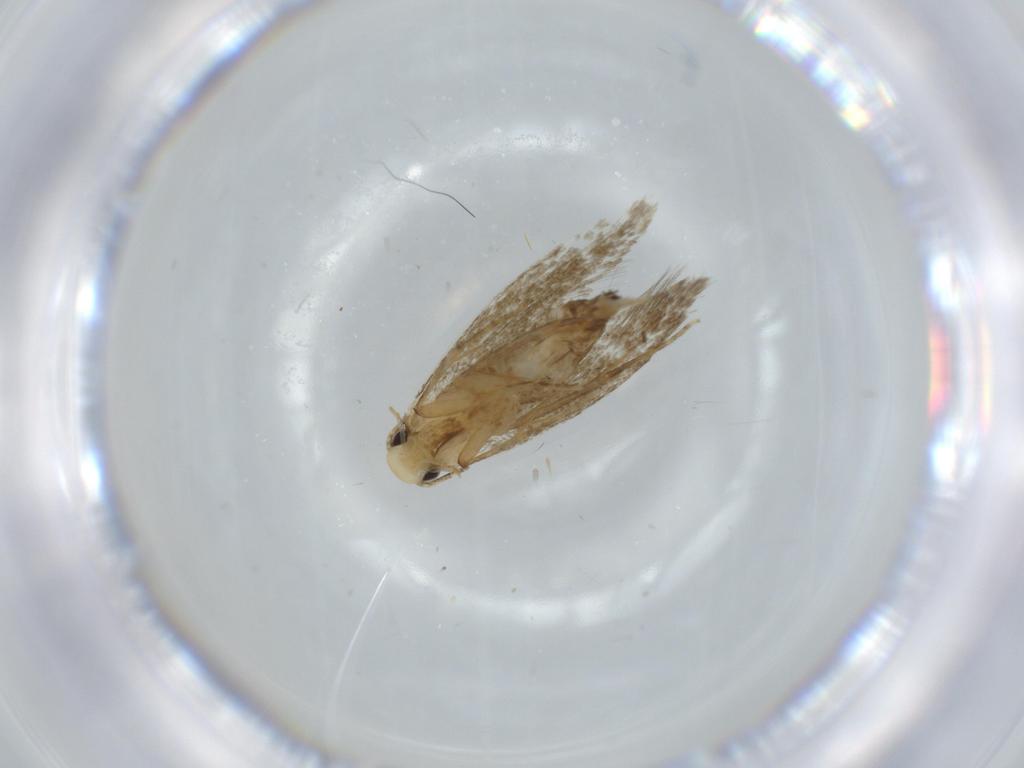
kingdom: Animalia
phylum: Arthropoda
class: Insecta
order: Lepidoptera
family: Tineidae
